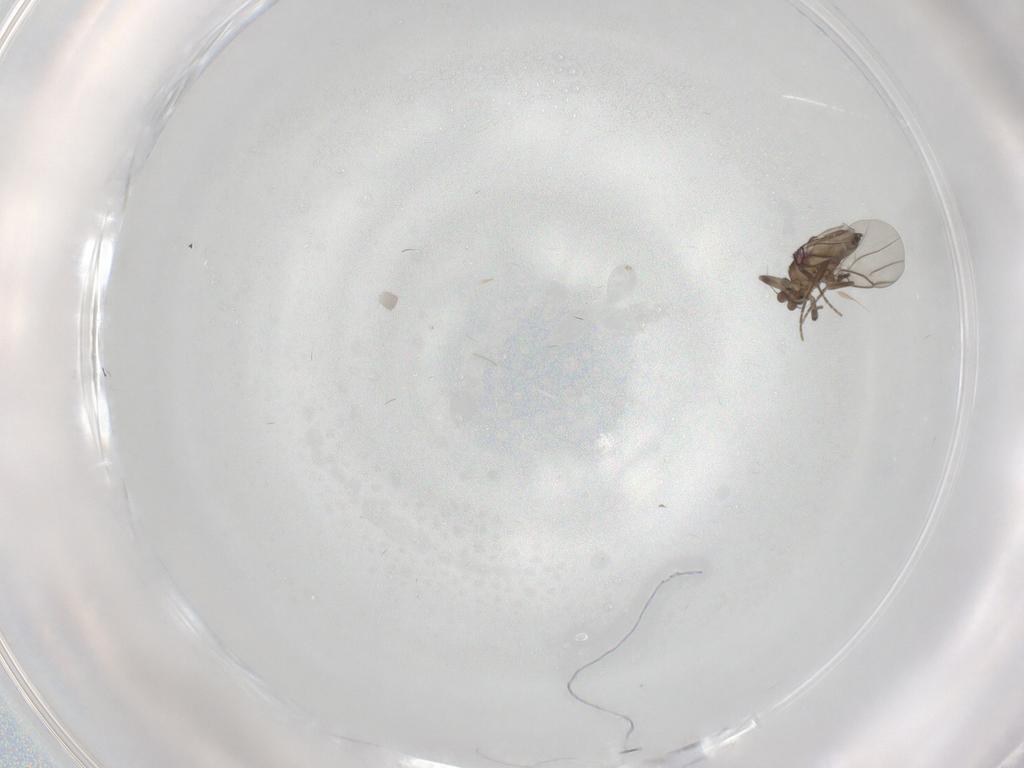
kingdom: Animalia
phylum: Arthropoda
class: Insecta
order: Diptera
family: Phoridae
